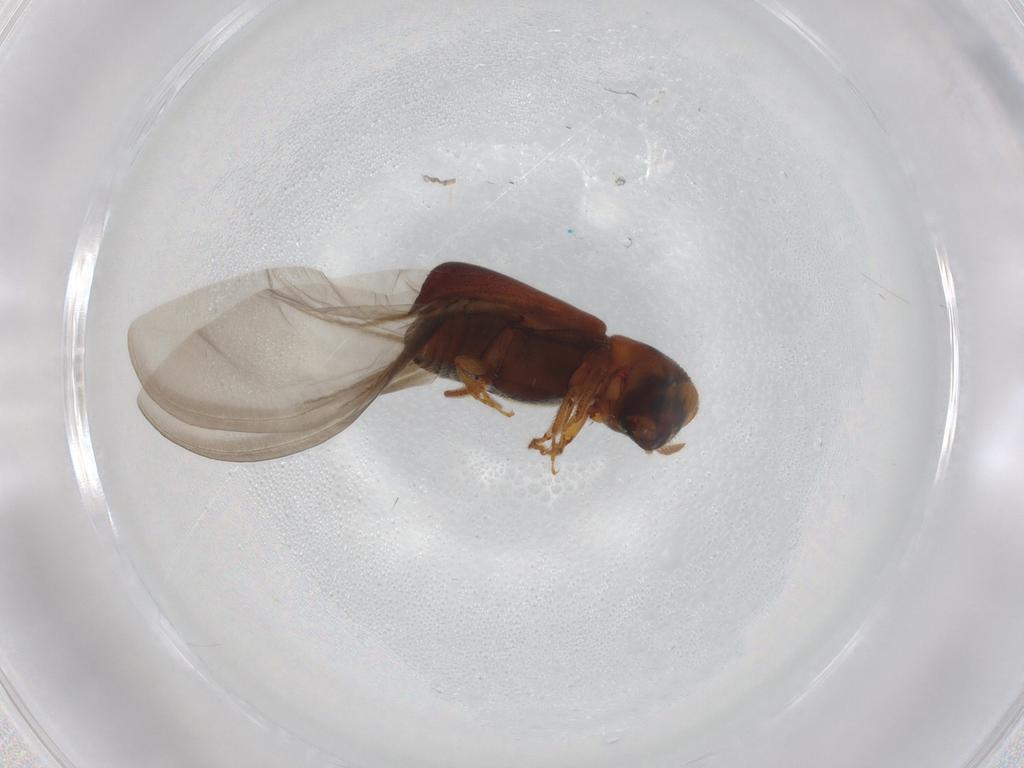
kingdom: Animalia
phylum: Arthropoda
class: Insecta
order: Coleoptera
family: Curculionidae
